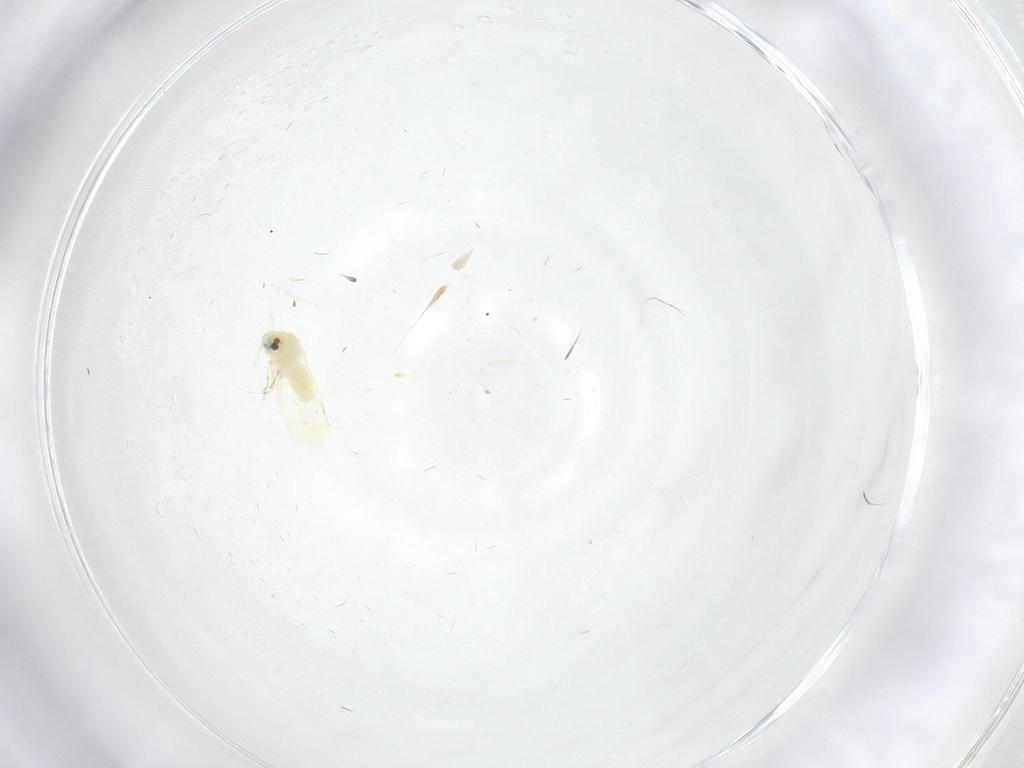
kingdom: Animalia
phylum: Arthropoda
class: Insecta
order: Hemiptera
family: Aleyrodidae
